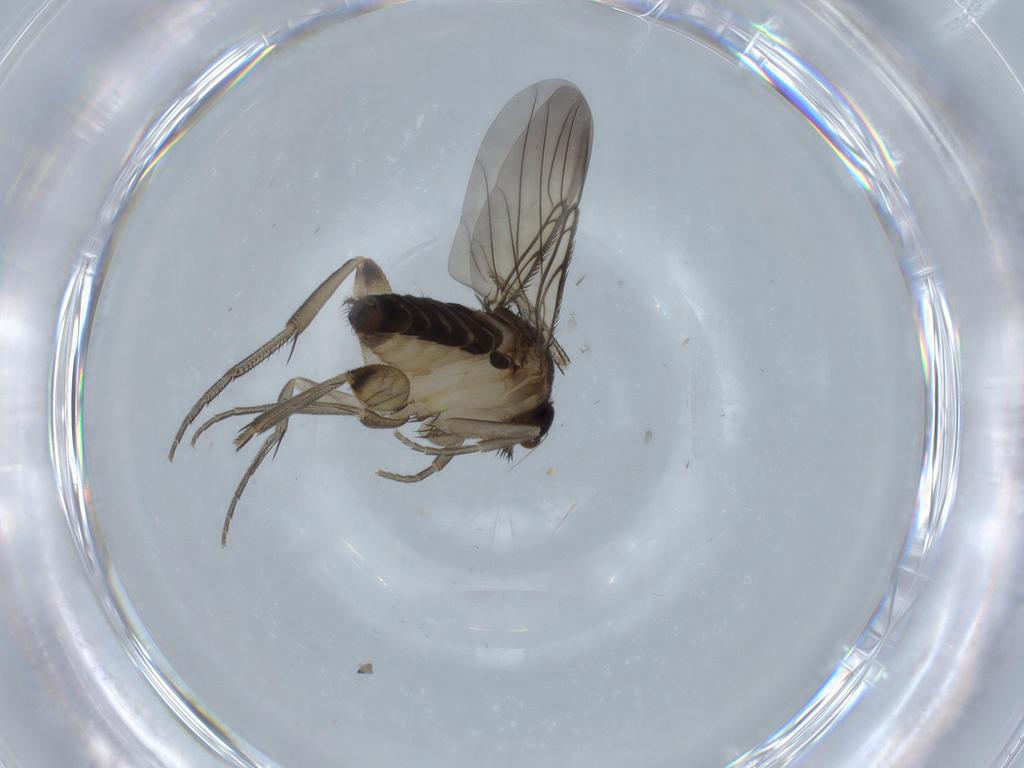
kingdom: Animalia
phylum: Arthropoda
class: Insecta
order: Diptera
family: Phoridae
